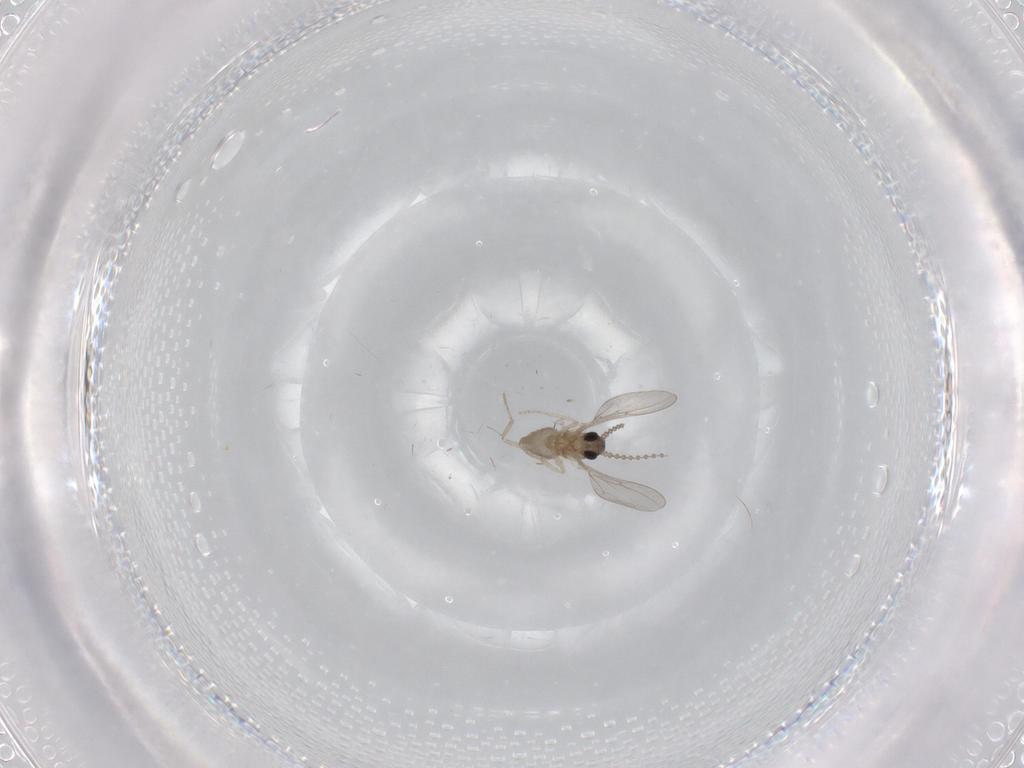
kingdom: Animalia
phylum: Arthropoda
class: Insecta
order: Diptera
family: Cecidomyiidae
